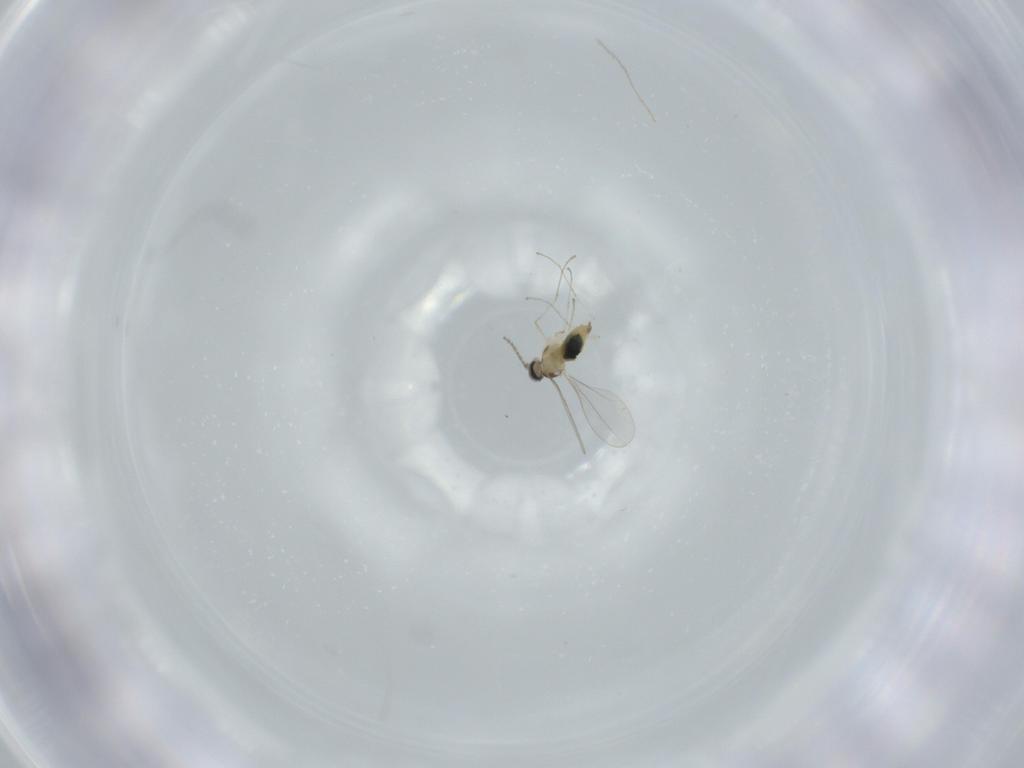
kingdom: Animalia
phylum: Arthropoda
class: Insecta
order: Diptera
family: Cecidomyiidae
